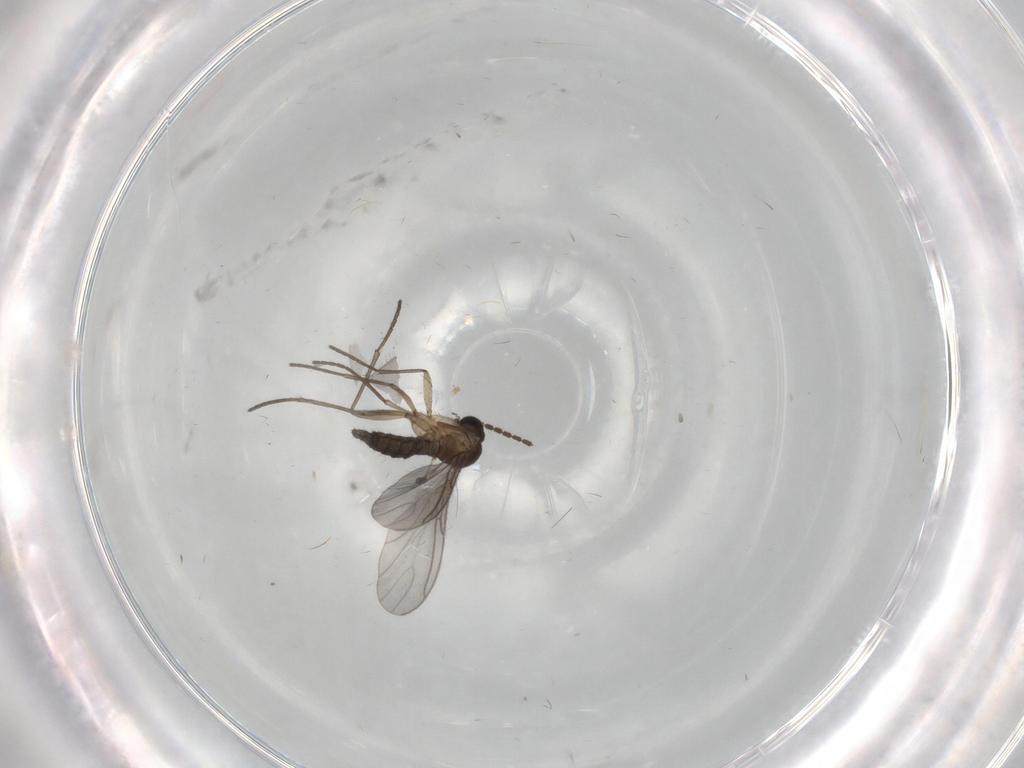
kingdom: Animalia
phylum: Arthropoda
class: Insecta
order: Diptera
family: Sciaridae
